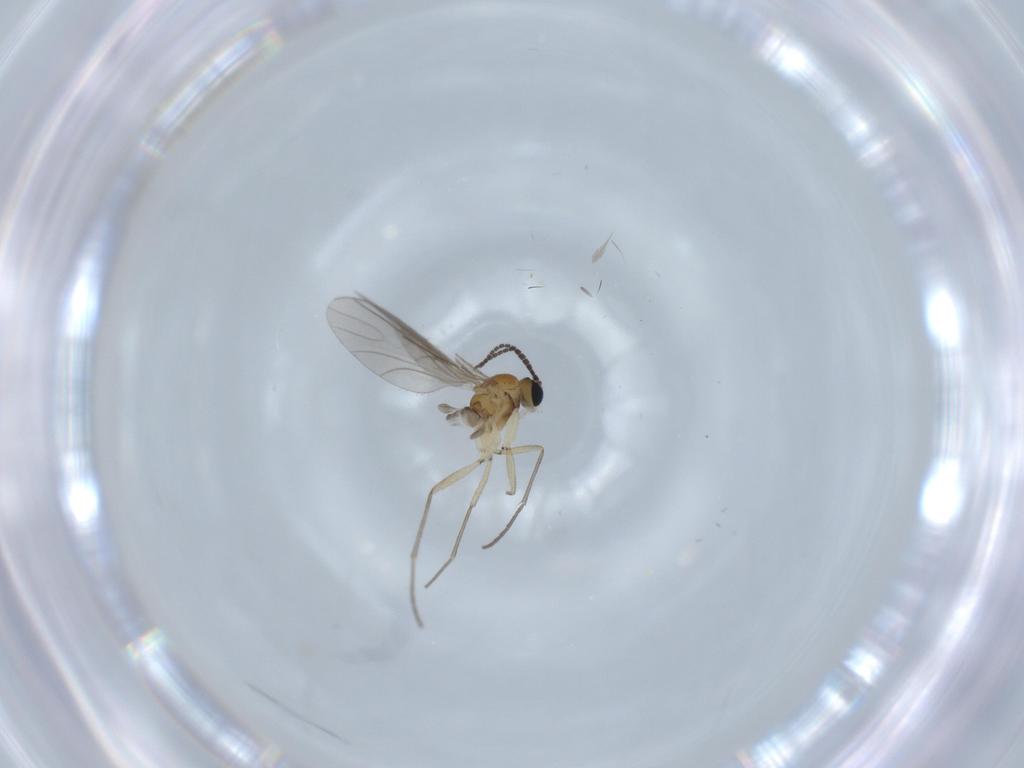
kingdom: Animalia
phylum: Arthropoda
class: Insecta
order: Diptera
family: Sciaridae
